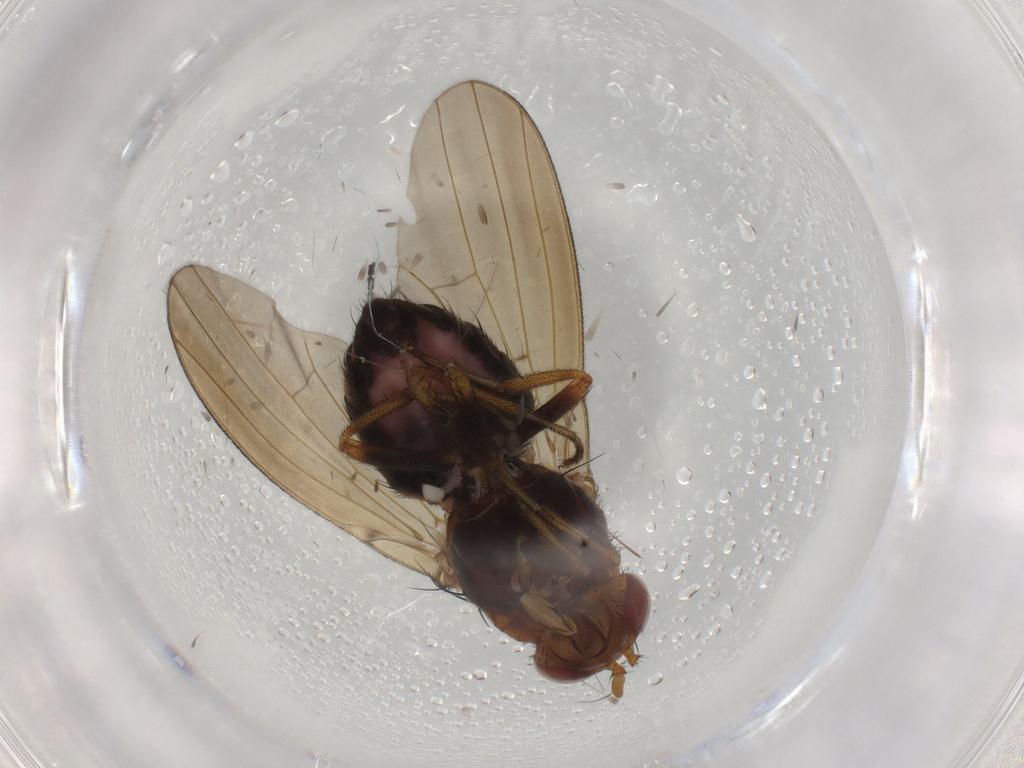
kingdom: Animalia
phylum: Arthropoda
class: Insecta
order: Diptera
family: Chironomidae
